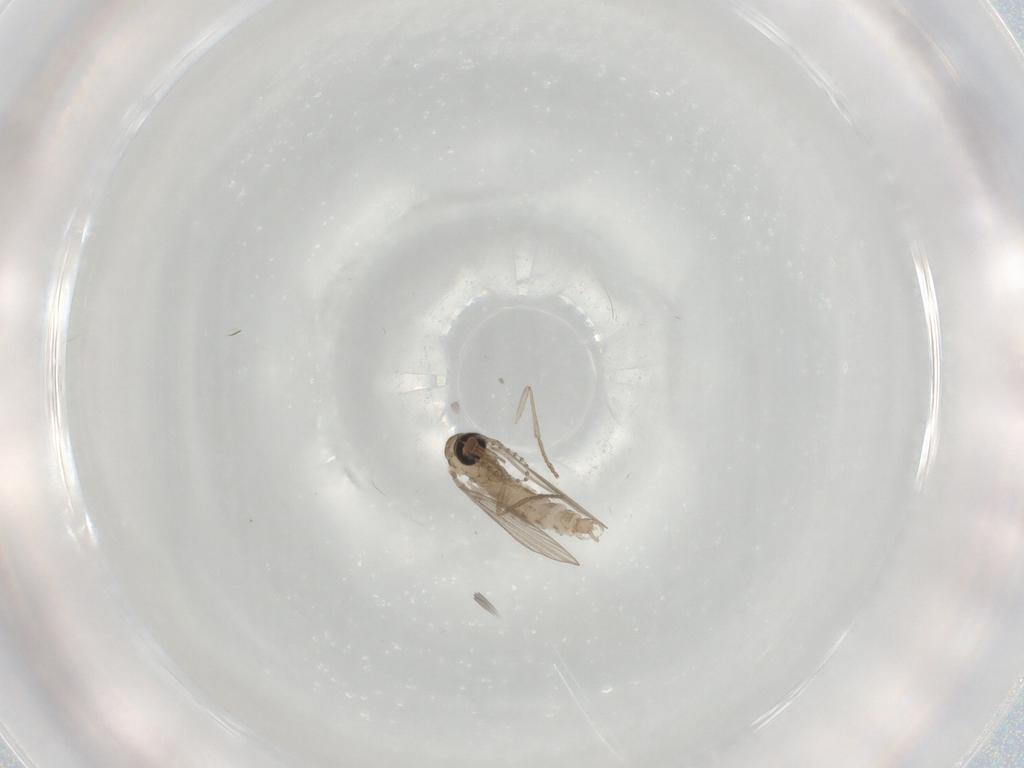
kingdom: Animalia
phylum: Arthropoda
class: Insecta
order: Diptera
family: Psychodidae
